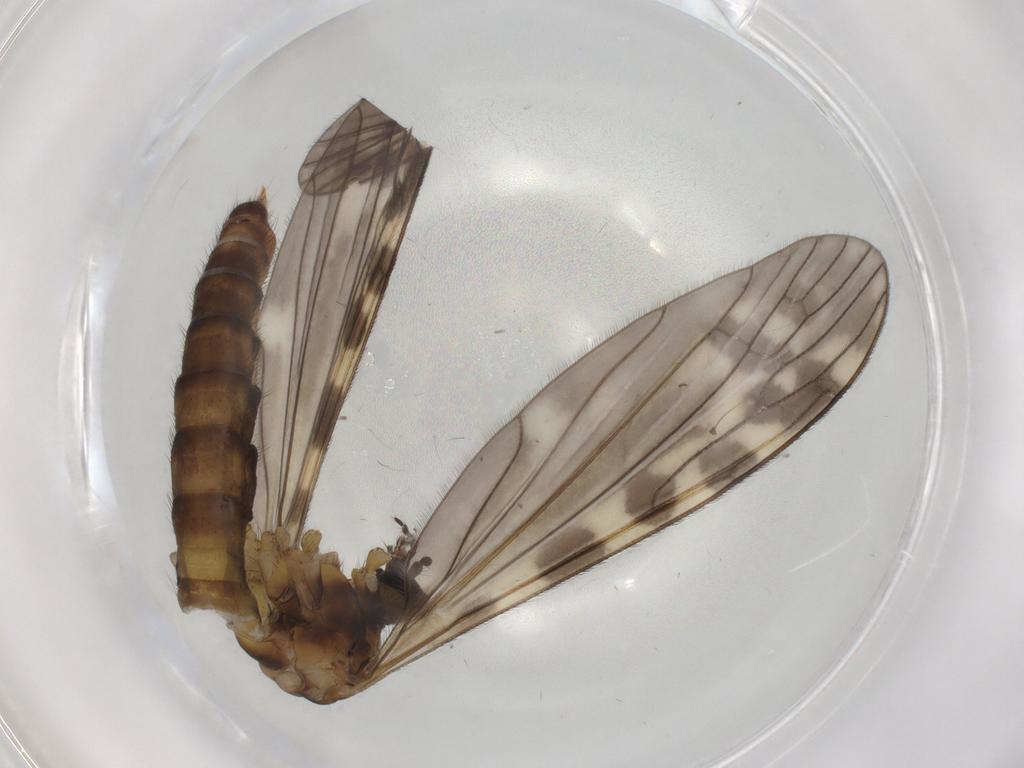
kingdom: Animalia
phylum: Arthropoda
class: Insecta
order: Diptera
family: Limoniidae
